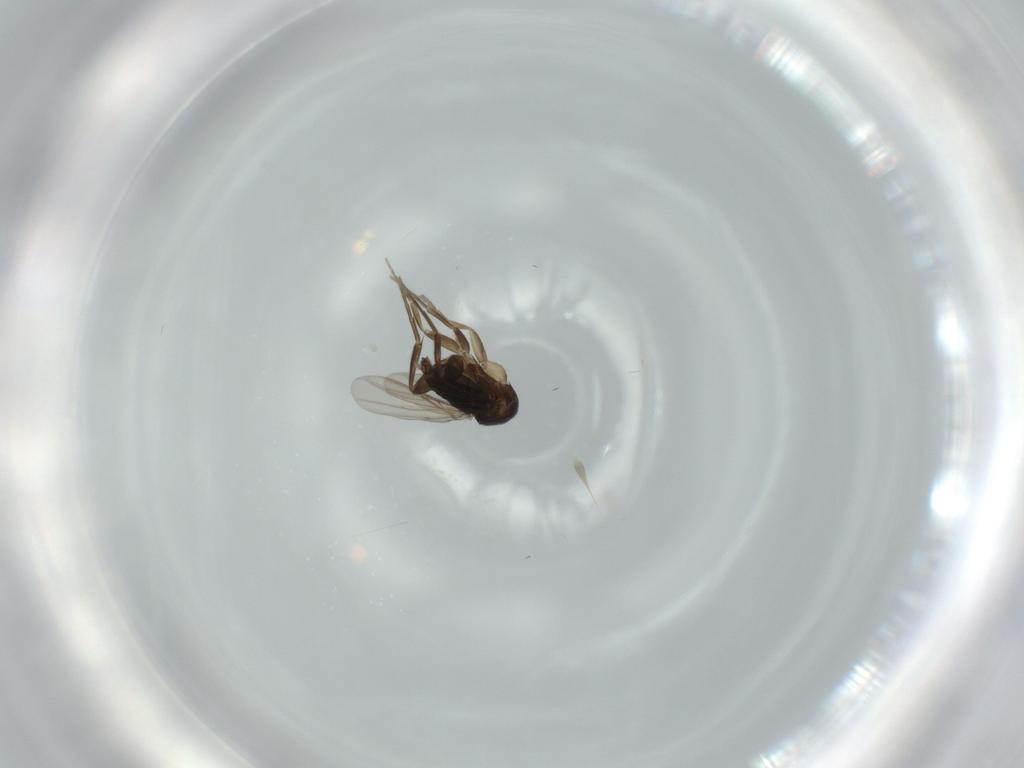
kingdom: Animalia
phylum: Arthropoda
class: Insecta
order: Diptera
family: Phoridae
